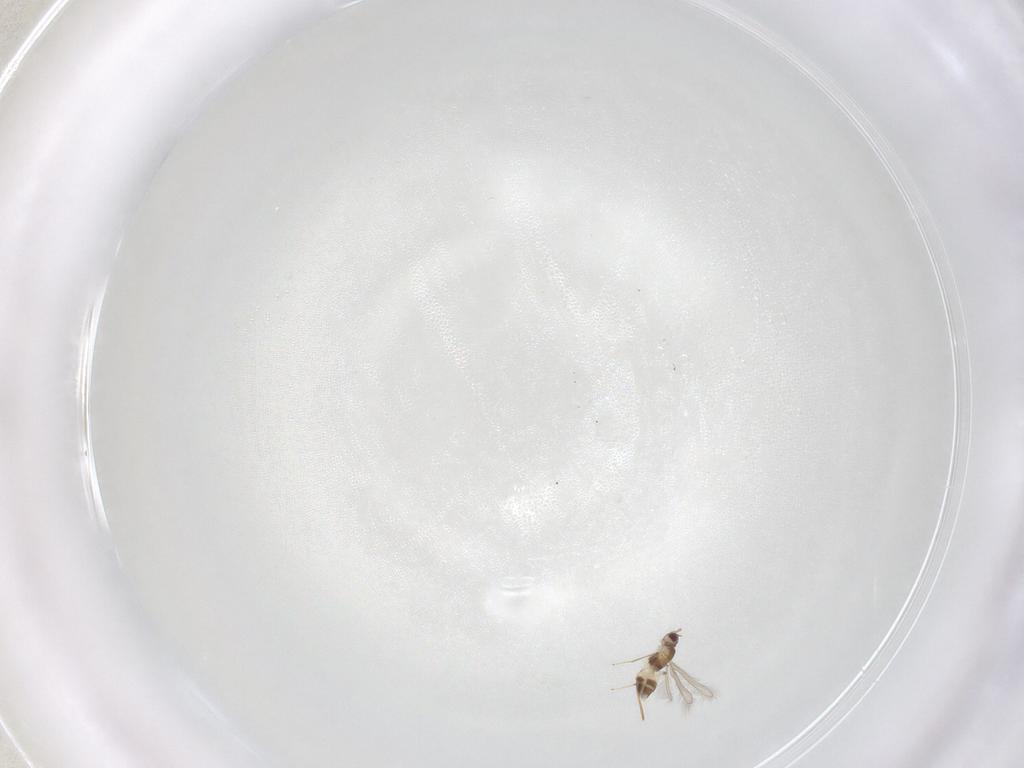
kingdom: Animalia
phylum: Arthropoda
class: Insecta
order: Hymenoptera
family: Mymaridae
